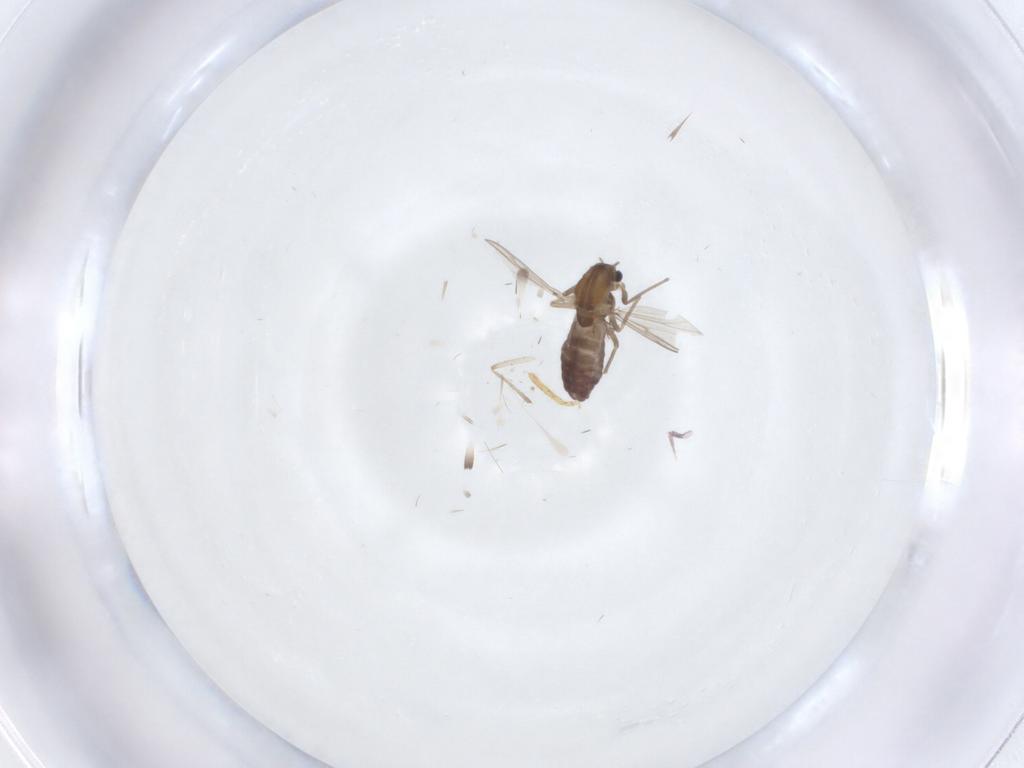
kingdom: Animalia
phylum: Arthropoda
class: Insecta
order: Diptera
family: Chironomidae
